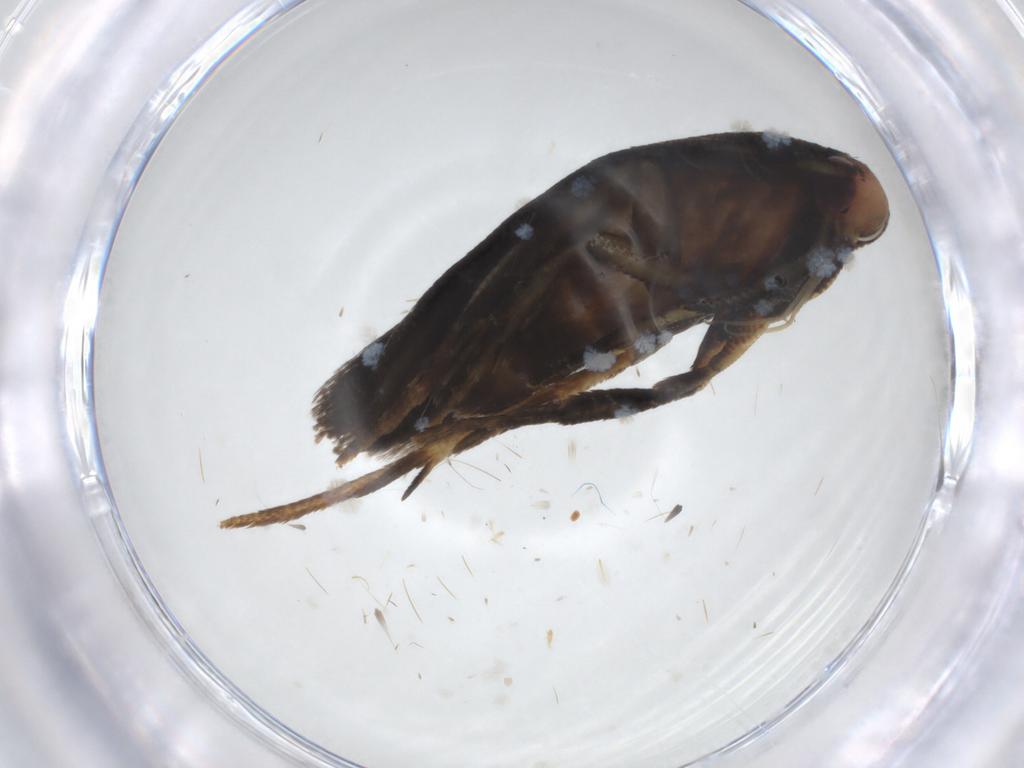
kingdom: Animalia
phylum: Arthropoda
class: Insecta
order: Lepidoptera
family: Oecophoridae
